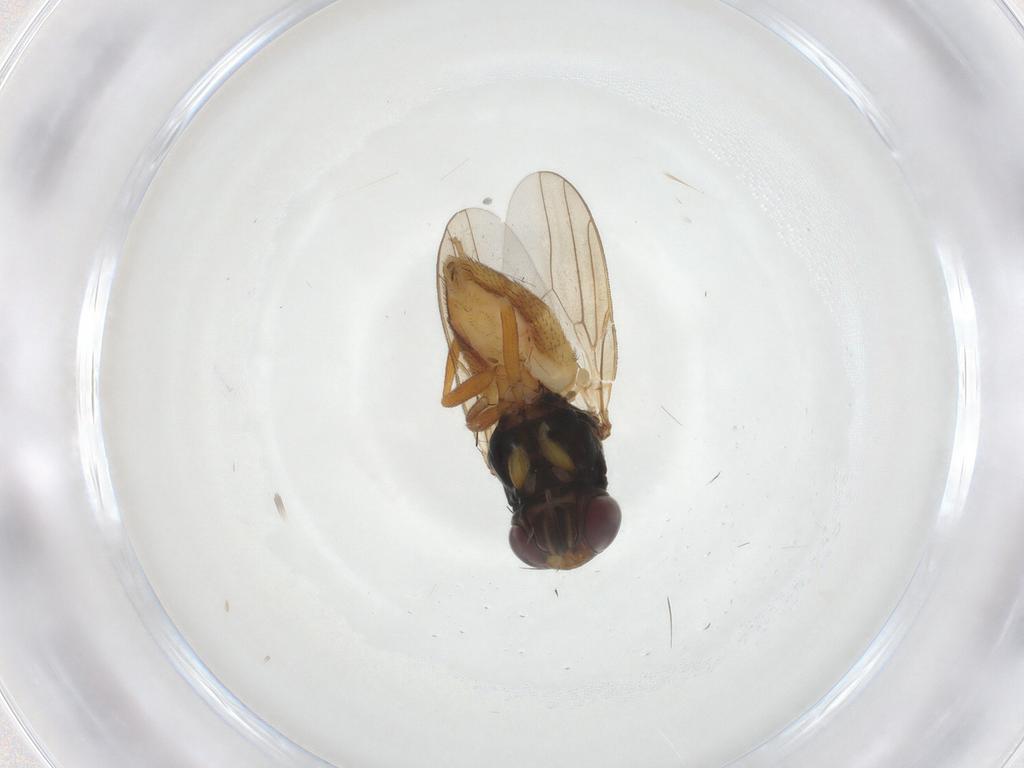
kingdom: Animalia
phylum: Arthropoda
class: Insecta
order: Diptera
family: Chloropidae
